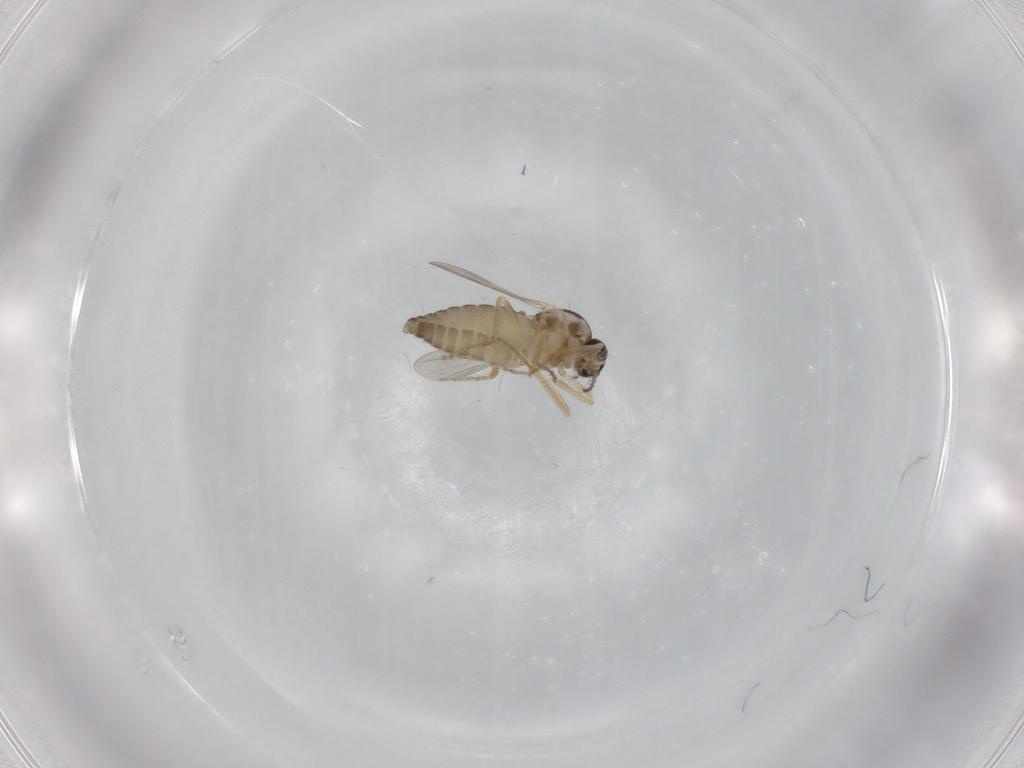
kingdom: Animalia
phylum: Arthropoda
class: Insecta
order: Diptera
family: Ceratopogonidae
